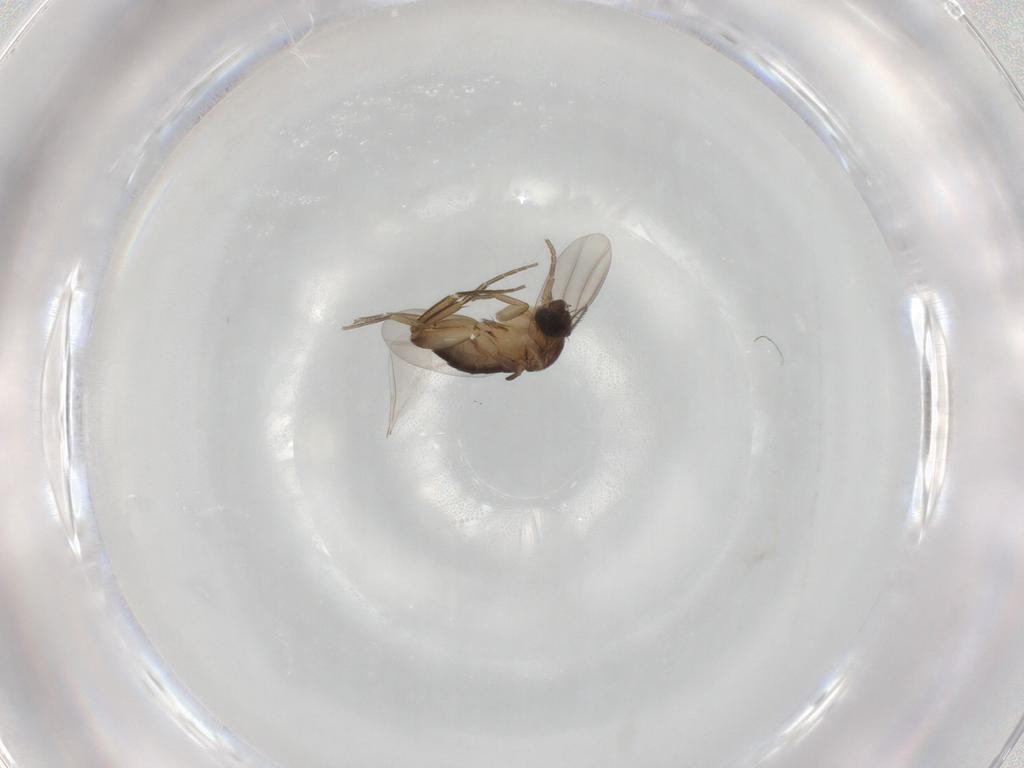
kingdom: Animalia
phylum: Arthropoda
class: Insecta
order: Diptera
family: Phoridae
